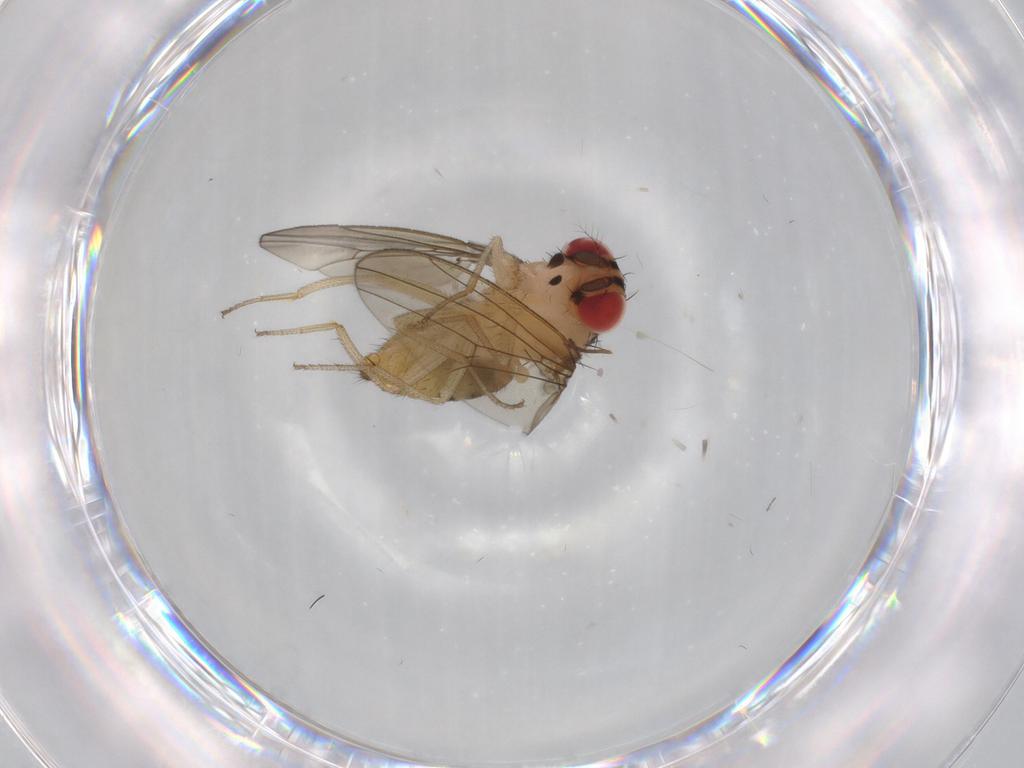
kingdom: Animalia
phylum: Arthropoda
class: Insecta
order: Diptera
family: Drosophilidae
